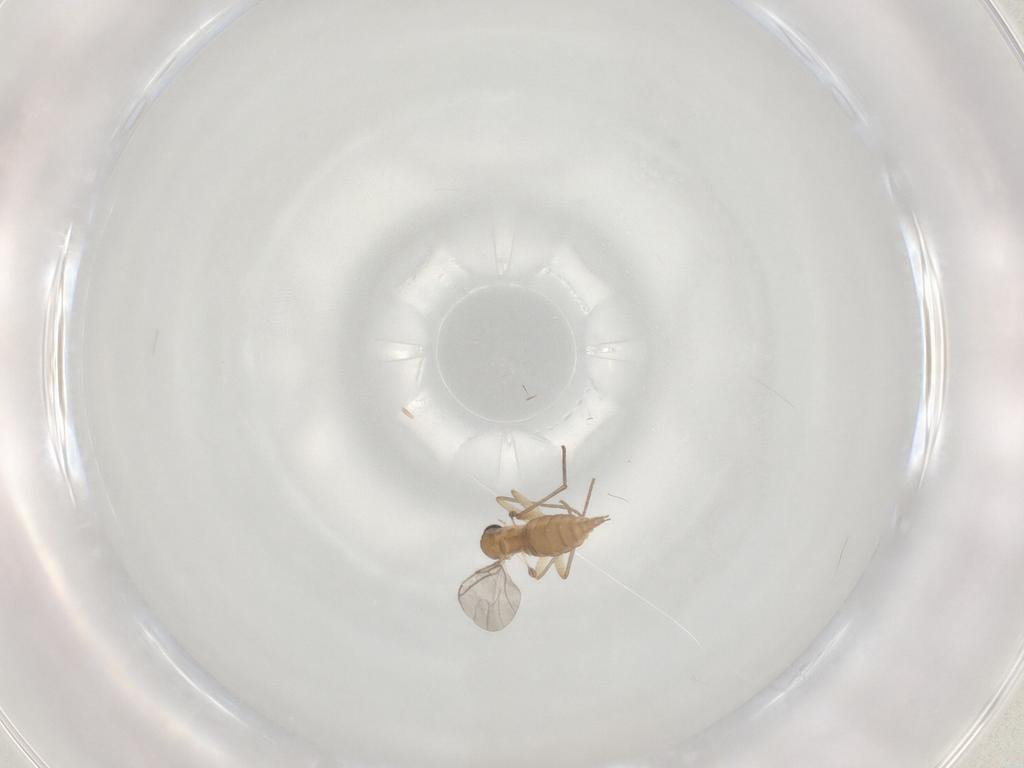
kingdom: Animalia
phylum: Arthropoda
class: Insecta
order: Diptera
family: Sciaridae
